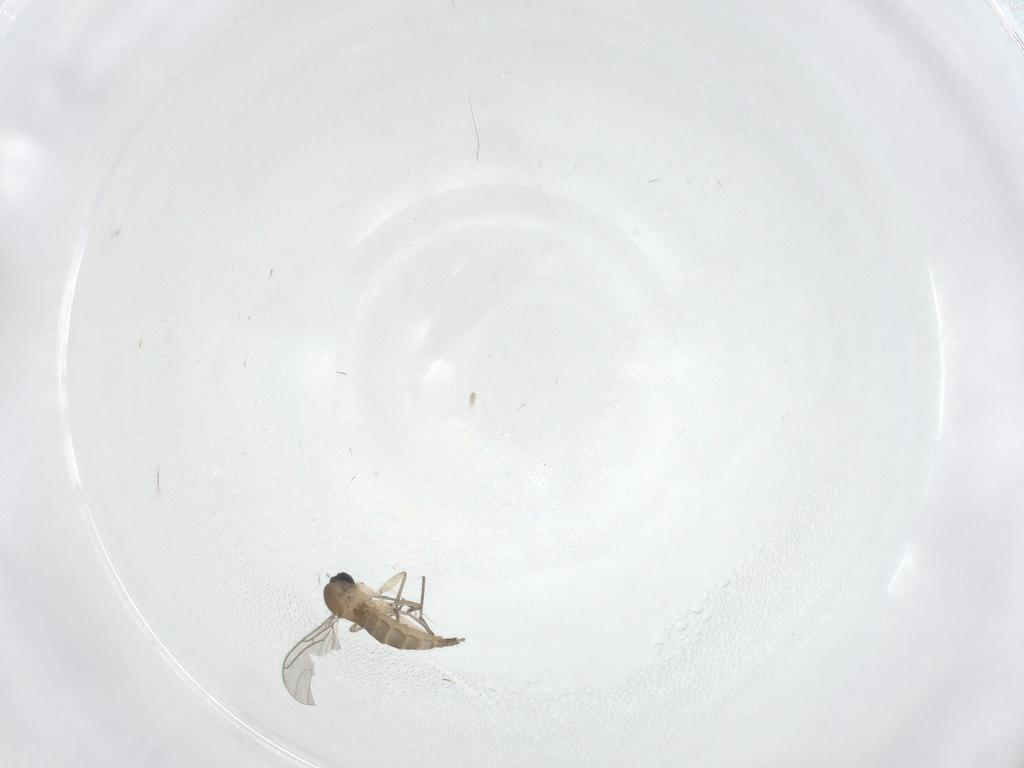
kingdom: Animalia
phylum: Arthropoda
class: Insecta
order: Diptera
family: Sciaridae
